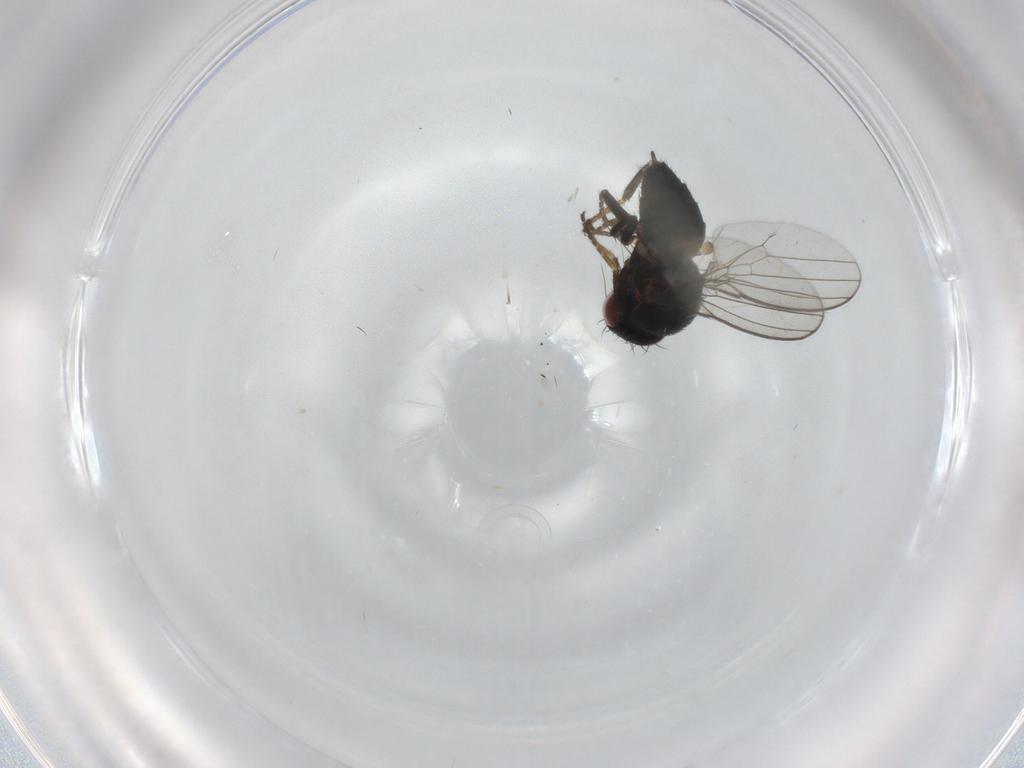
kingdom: Animalia
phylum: Arthropoda
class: Insecta
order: Diptera
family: Milichiidae
